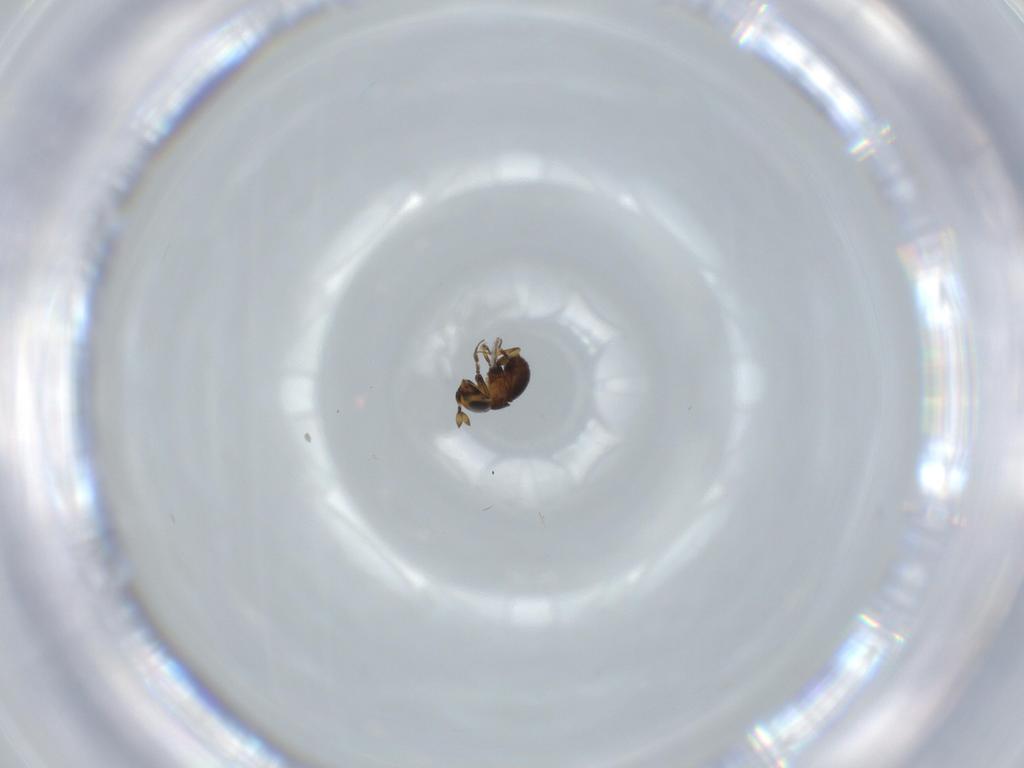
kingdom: Animalia
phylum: Arthropoda
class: Insecta
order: Hymenoptera
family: Scelionidae
